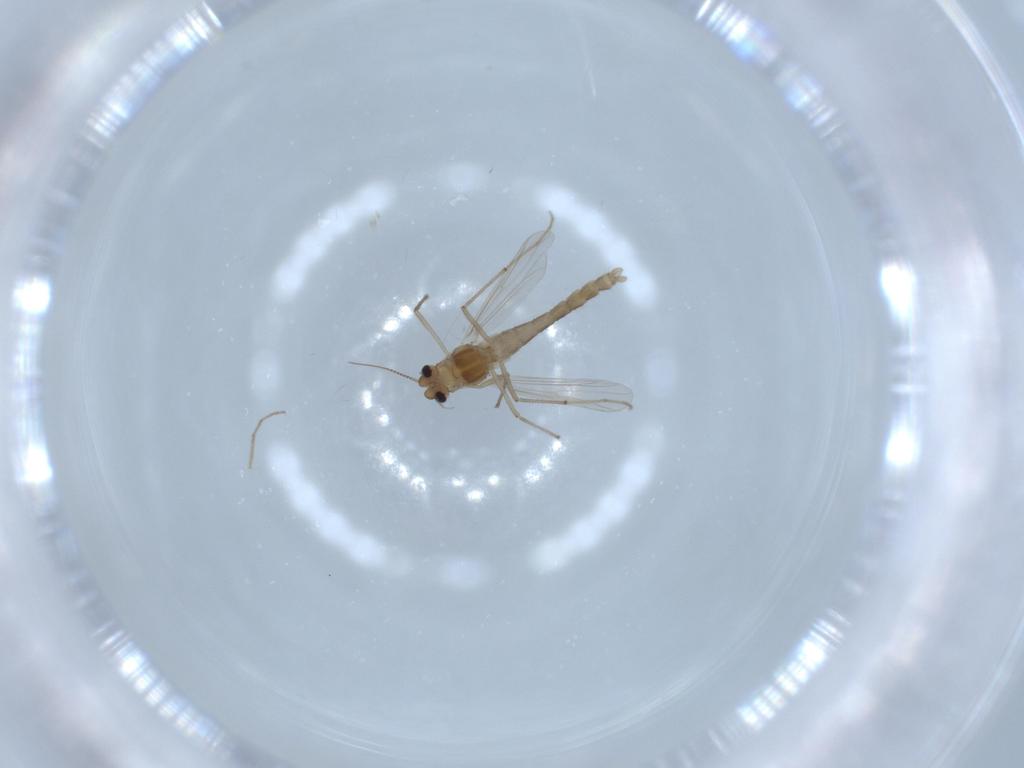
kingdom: Animalia
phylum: Arthropoda
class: Insecta
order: Diptera
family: Chironomidae
